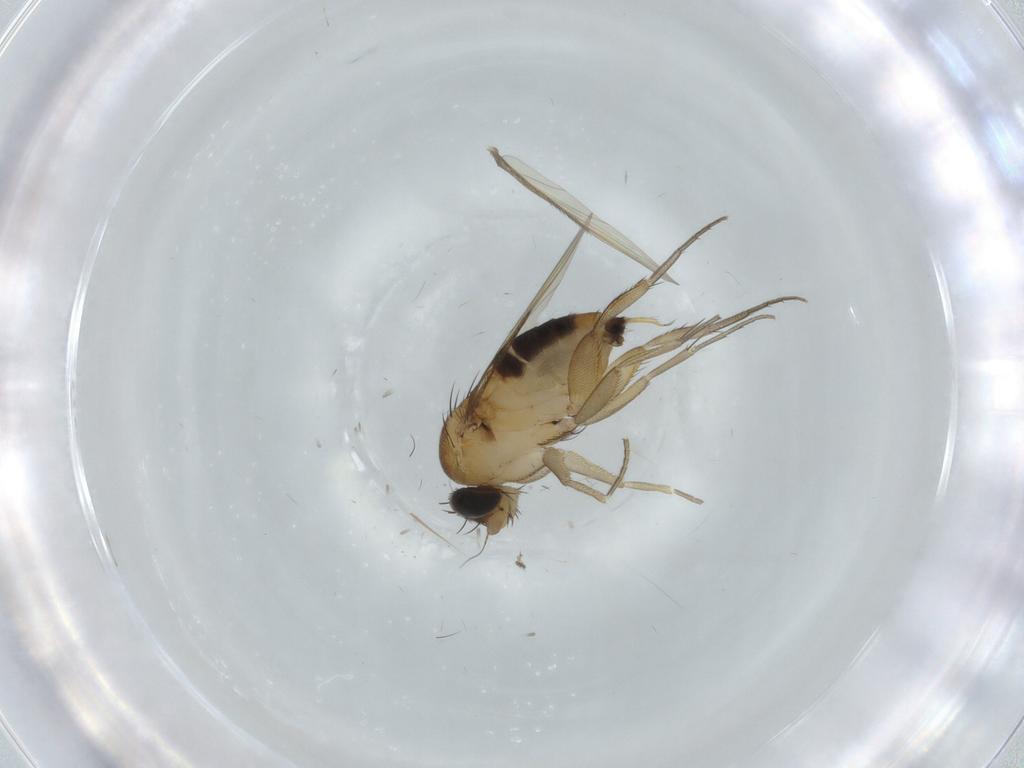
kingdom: Animalia
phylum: Arthropoda
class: Insecta
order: Diptera
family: Phoridae
